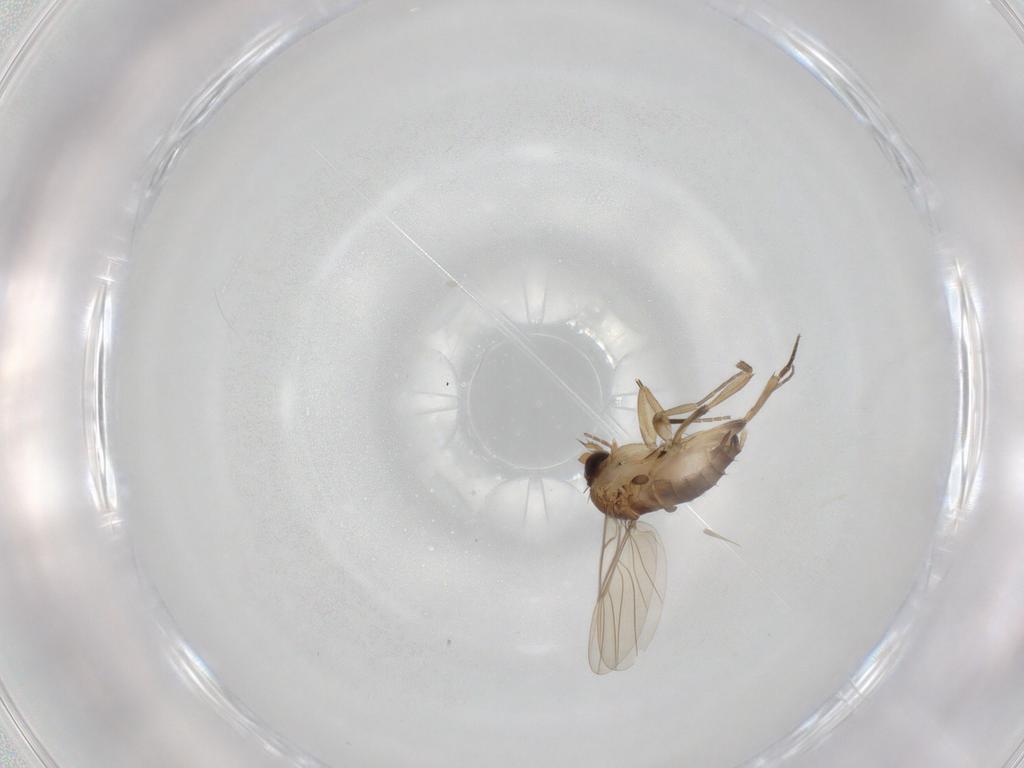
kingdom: Animalia
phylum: Arthropoda
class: Insecta
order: Diptera
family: Phoridae
